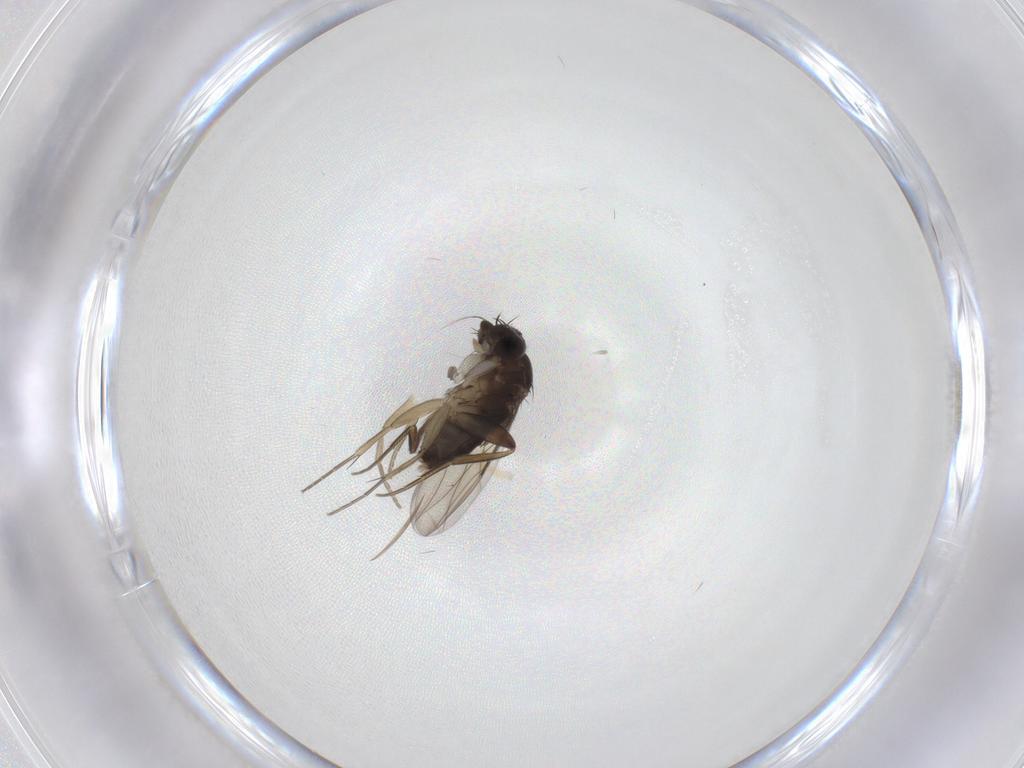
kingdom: Animalia
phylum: Arthropoda
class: Insecta
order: Diptera
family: Phoridae
